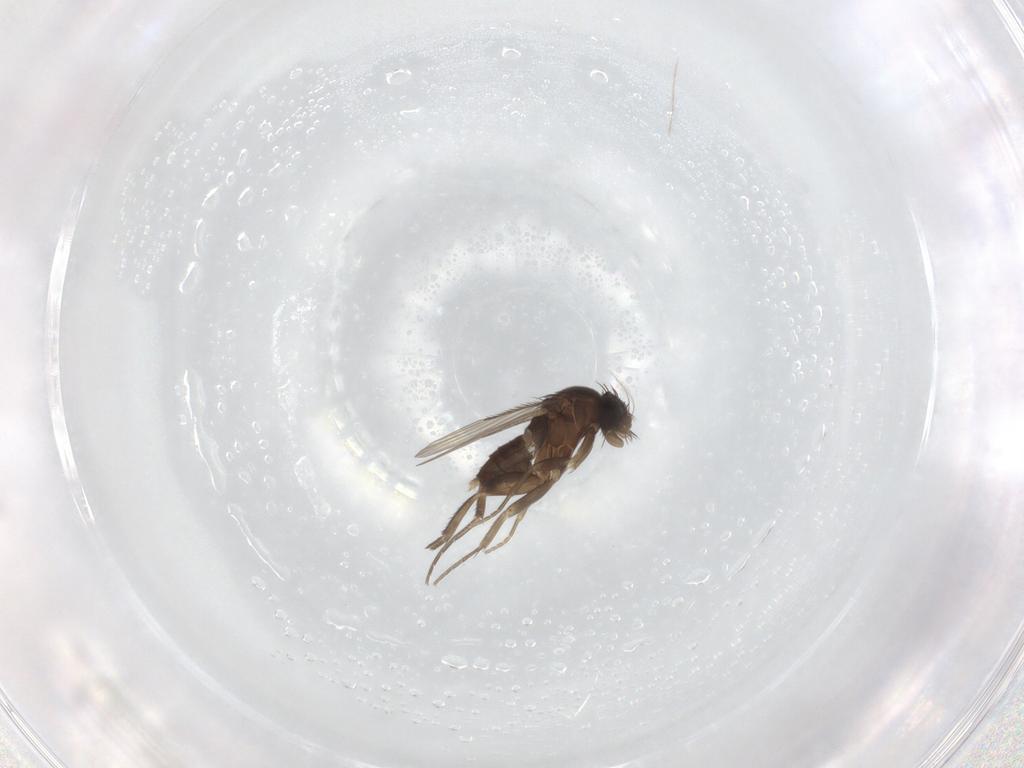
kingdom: Animalia
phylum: Arthropoda
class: Insecta
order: Diptera
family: Phoridae
